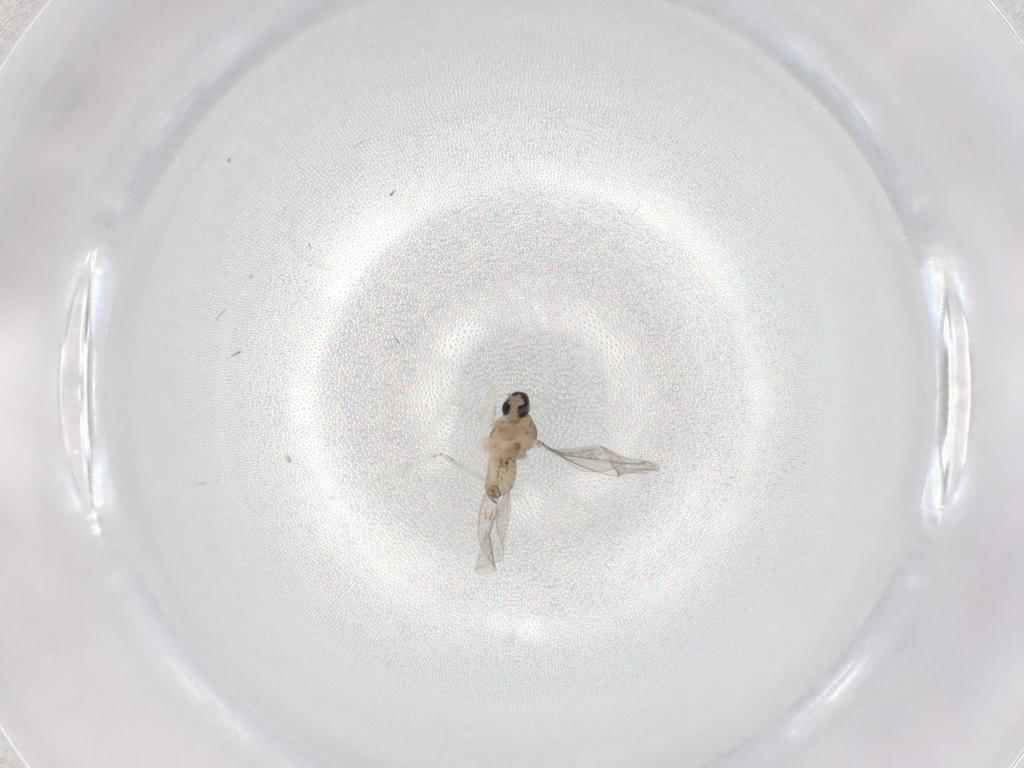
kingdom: Animalia
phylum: Arthropoda
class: Insecta
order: Diptera
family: Cecidomyiidae
